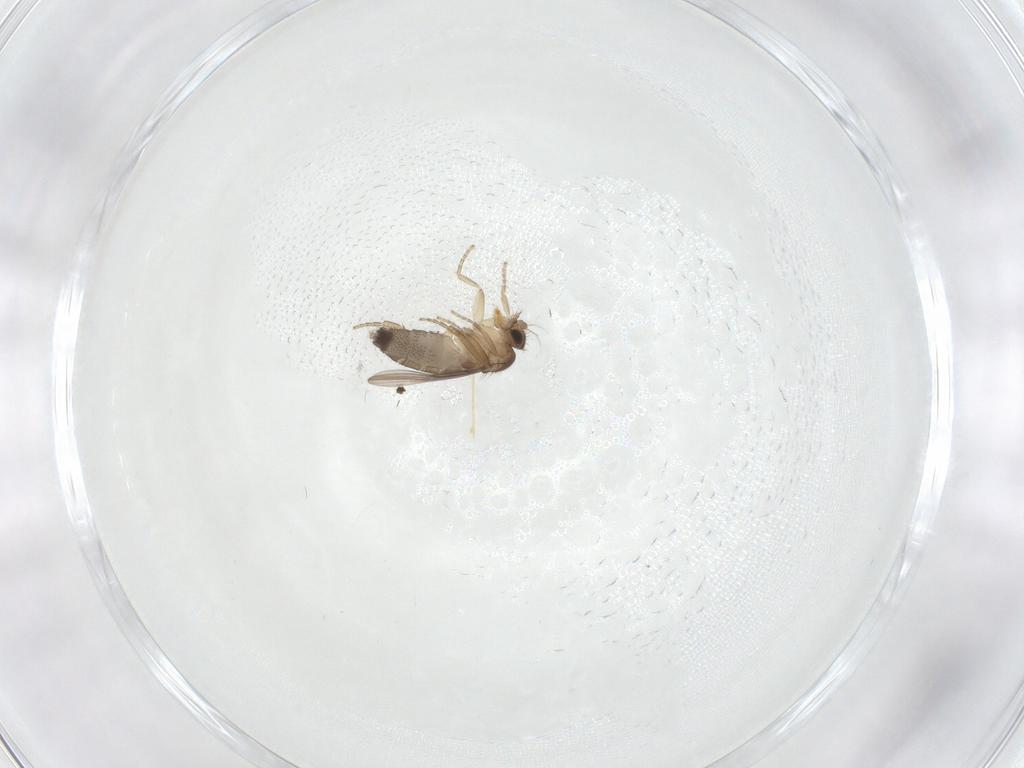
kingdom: Animalia
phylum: Arthropoda
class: Insecta
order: Diptera
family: Phoridae
